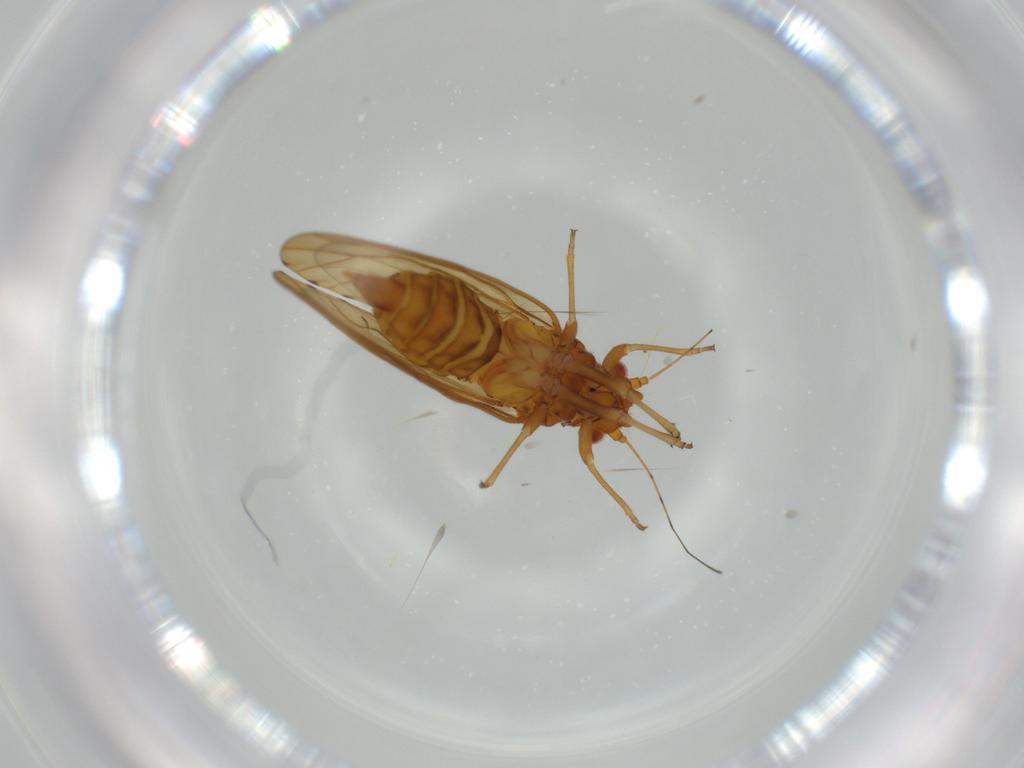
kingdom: Animalia
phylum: Arthropoda
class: Insecta
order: Hemiptera
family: Psylloidea_incertae_sedis
